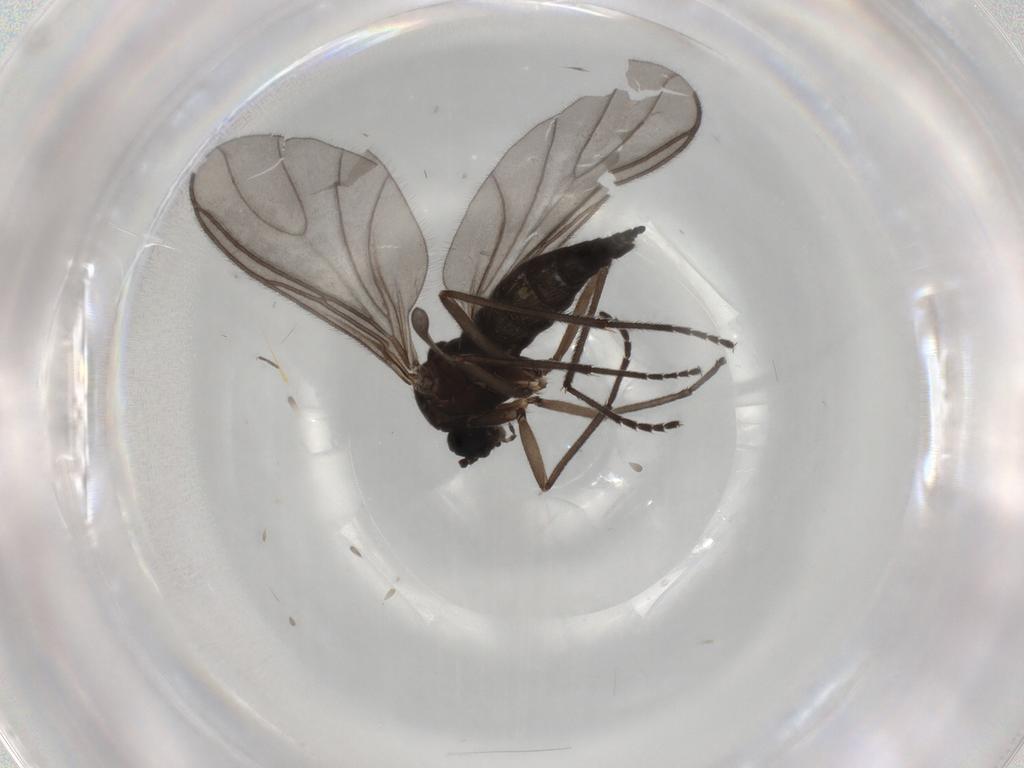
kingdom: Animalia
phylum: Arthropoda
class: Insecta
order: Diptera
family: Sciaridae
